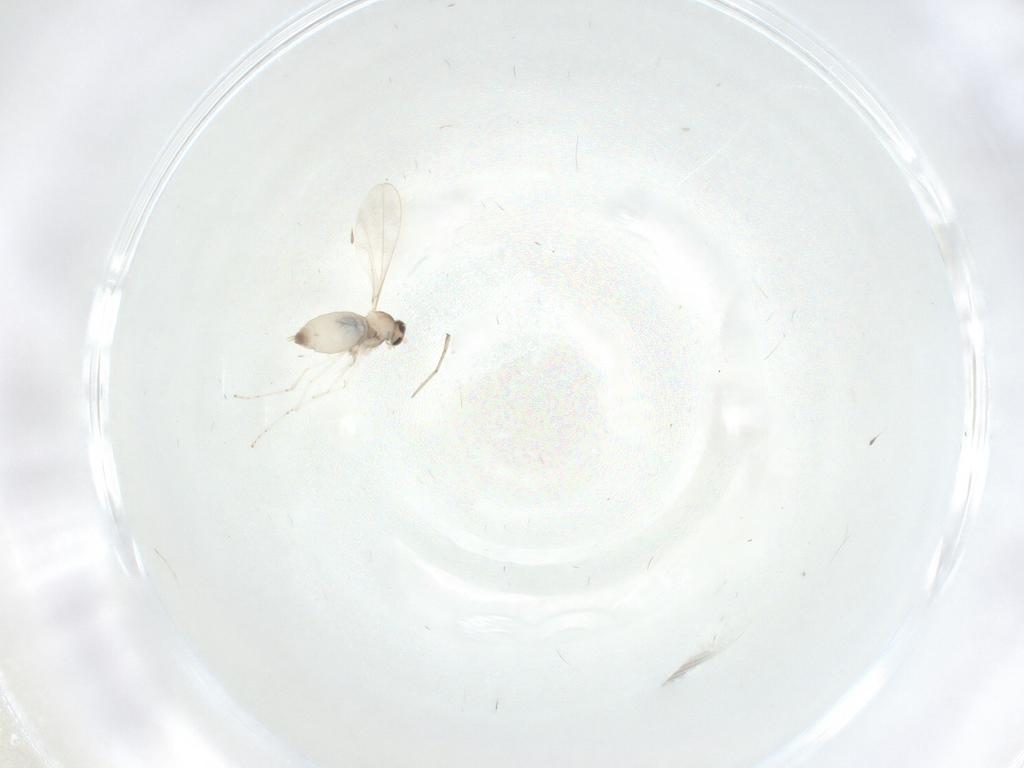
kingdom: Animalia
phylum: Arthropoda
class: Insecta
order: Diptera
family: Cecidomyiidae
